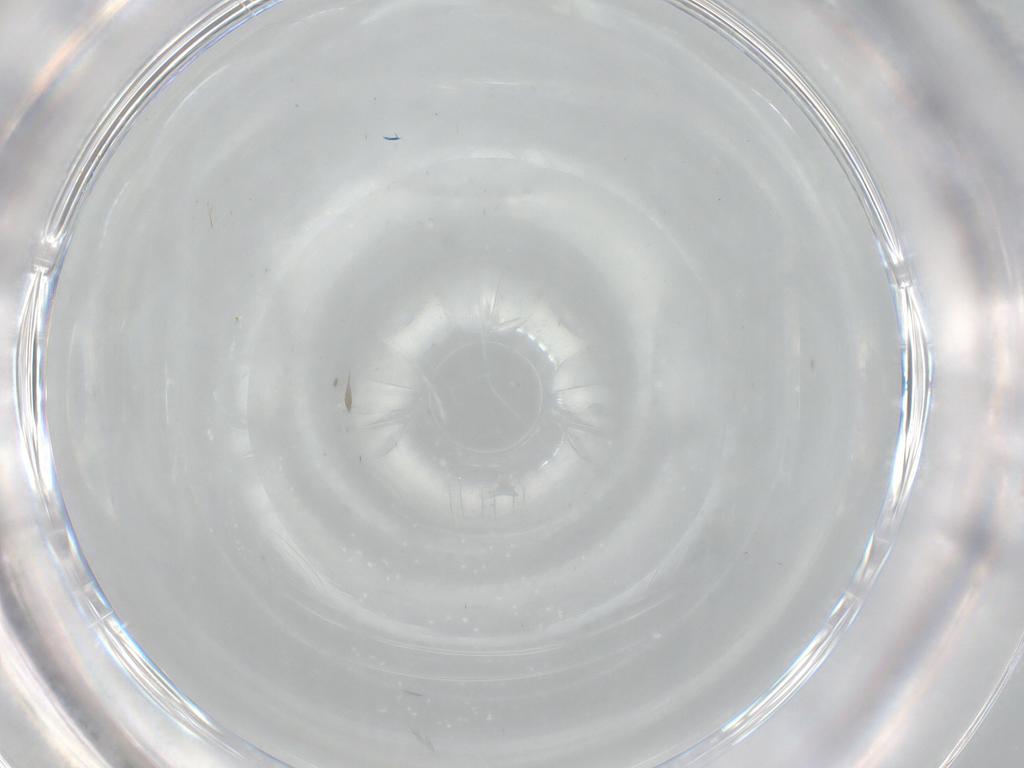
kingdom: Animalia
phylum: Arthropoda
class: Insecta
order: Diptera
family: Cecidomyiidae
